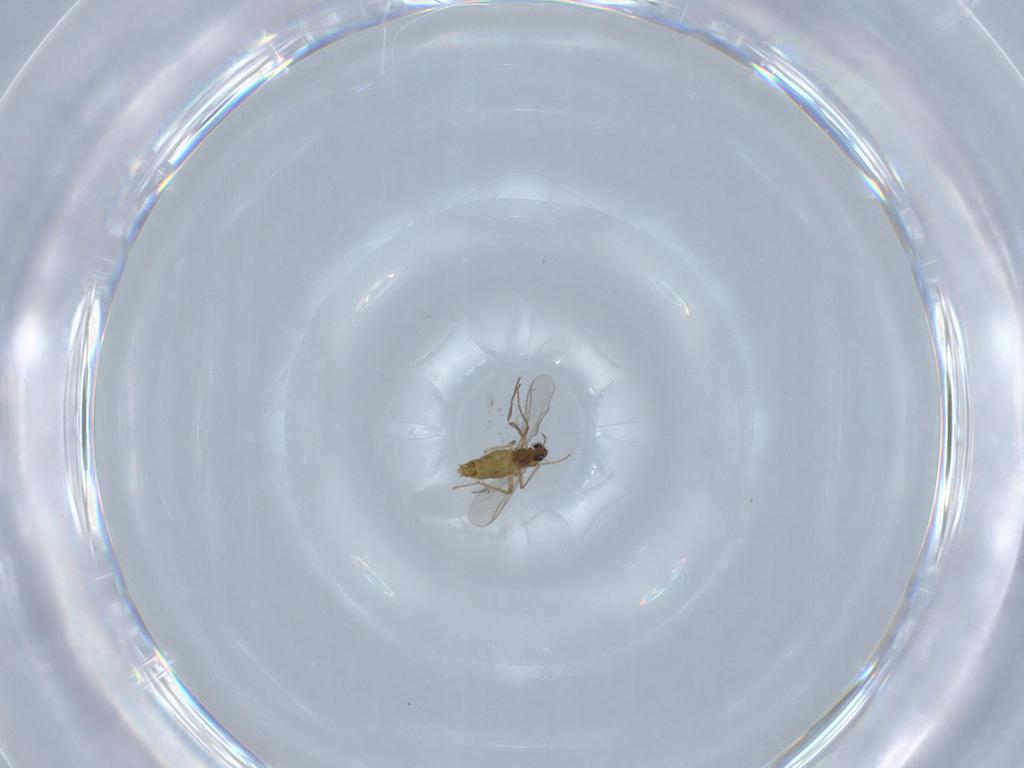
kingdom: Animalia
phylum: Arthropoda
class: Insecta
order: Diptera
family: Chironomidae
